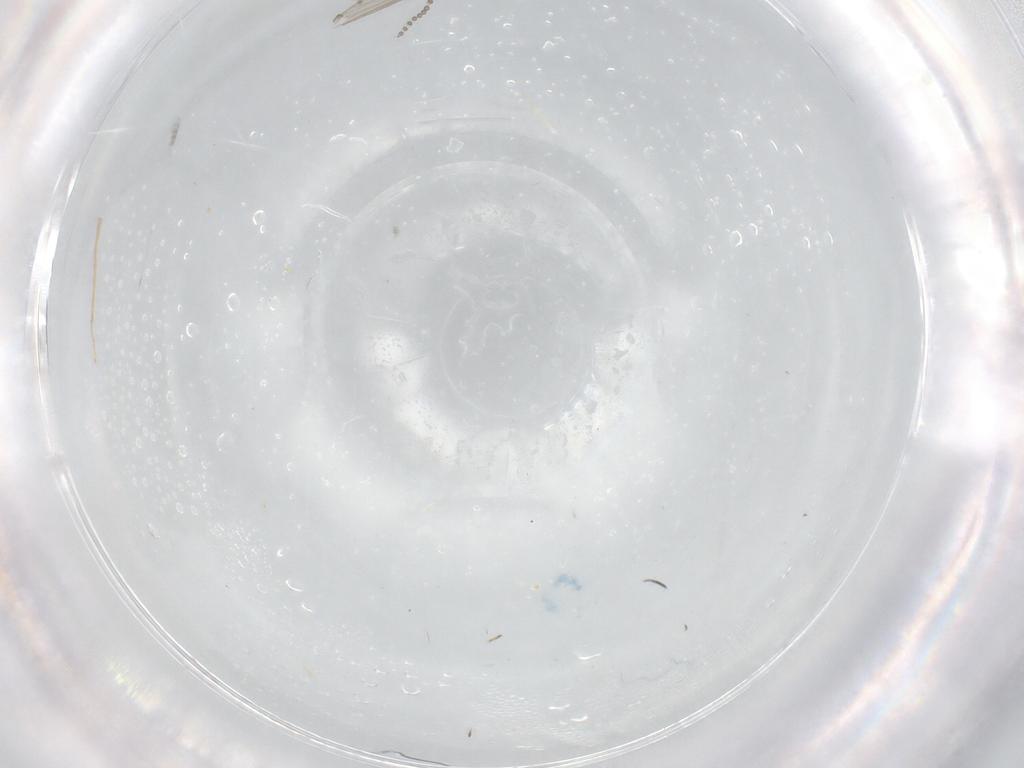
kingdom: Animalia
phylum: Arthropoda
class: Insecta
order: Diptera
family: Psychodidae
